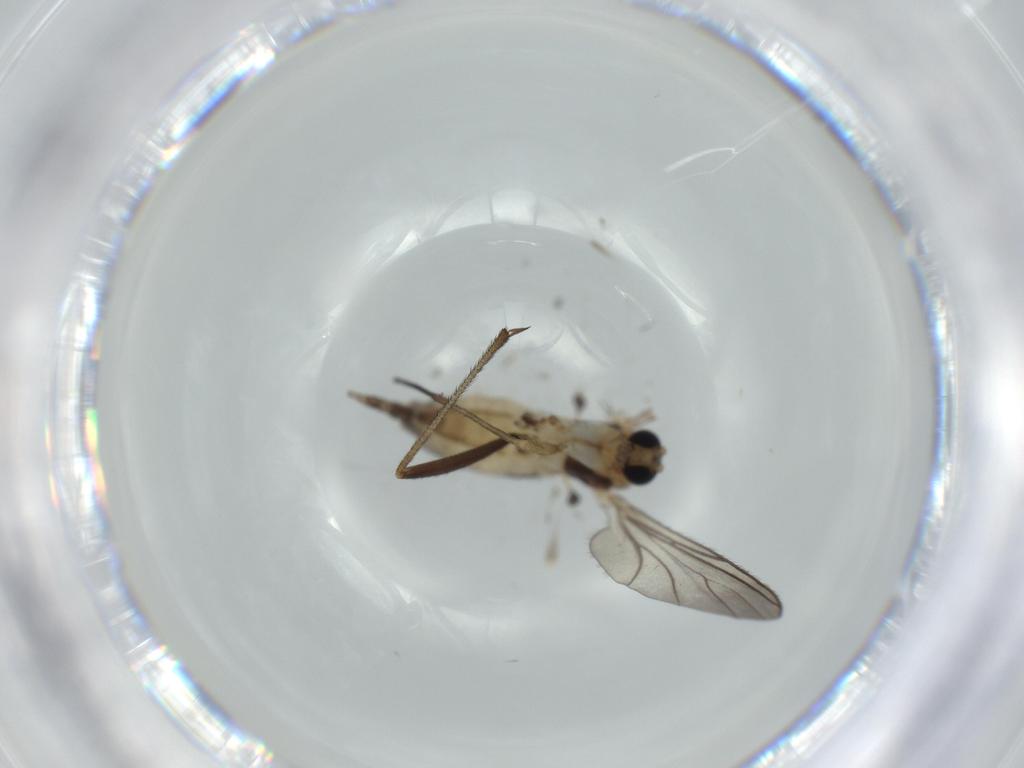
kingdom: Animalia
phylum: Arthropoda
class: Insecta
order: Diptera
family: Sciaridae
